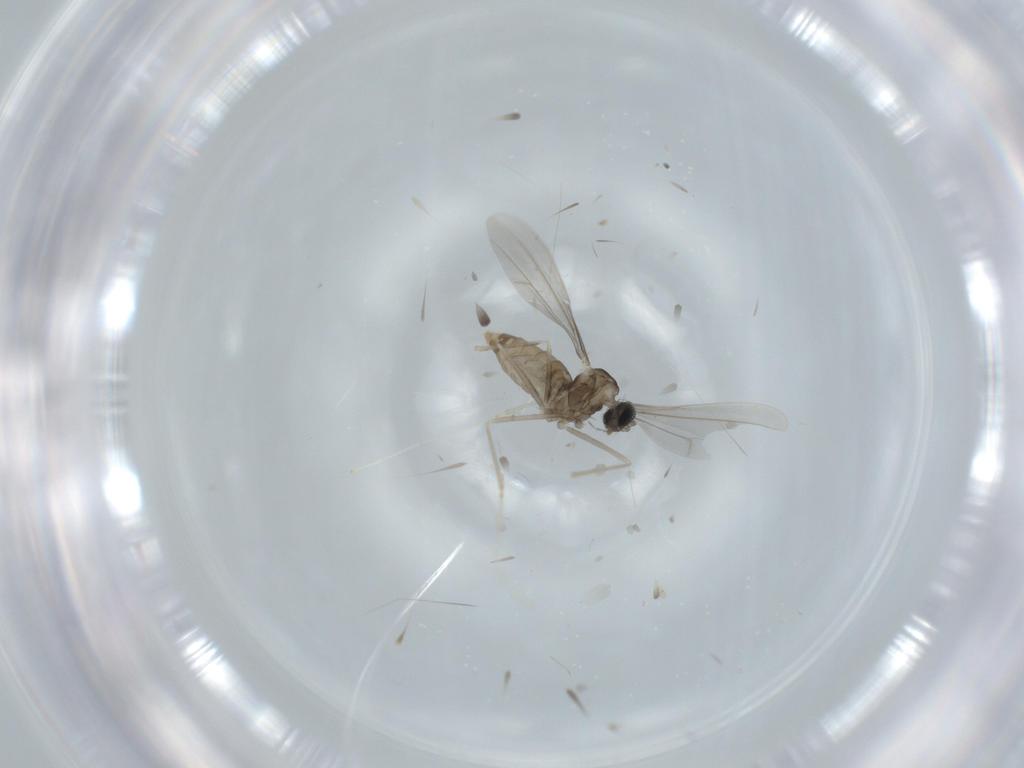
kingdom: Animalia
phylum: Arthropoda
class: Insecta
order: Diptera
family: Cecidomyiidae
